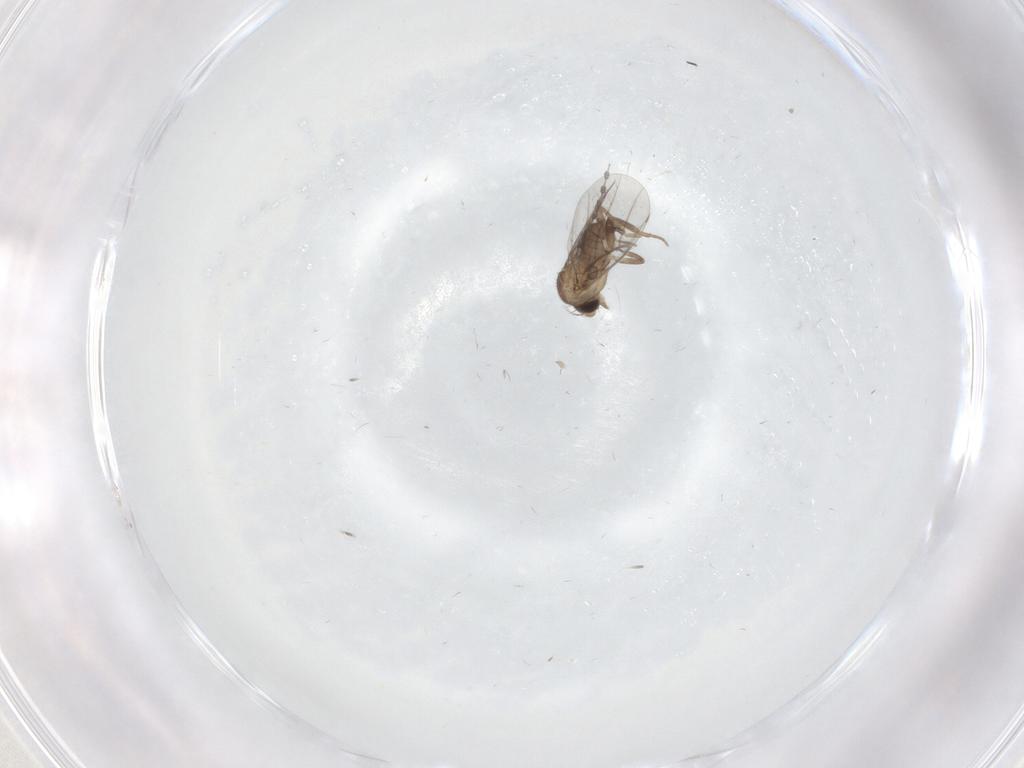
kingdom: Animalia
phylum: Arthropoda
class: Insecta
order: Diptera
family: Cecidomyiidae
